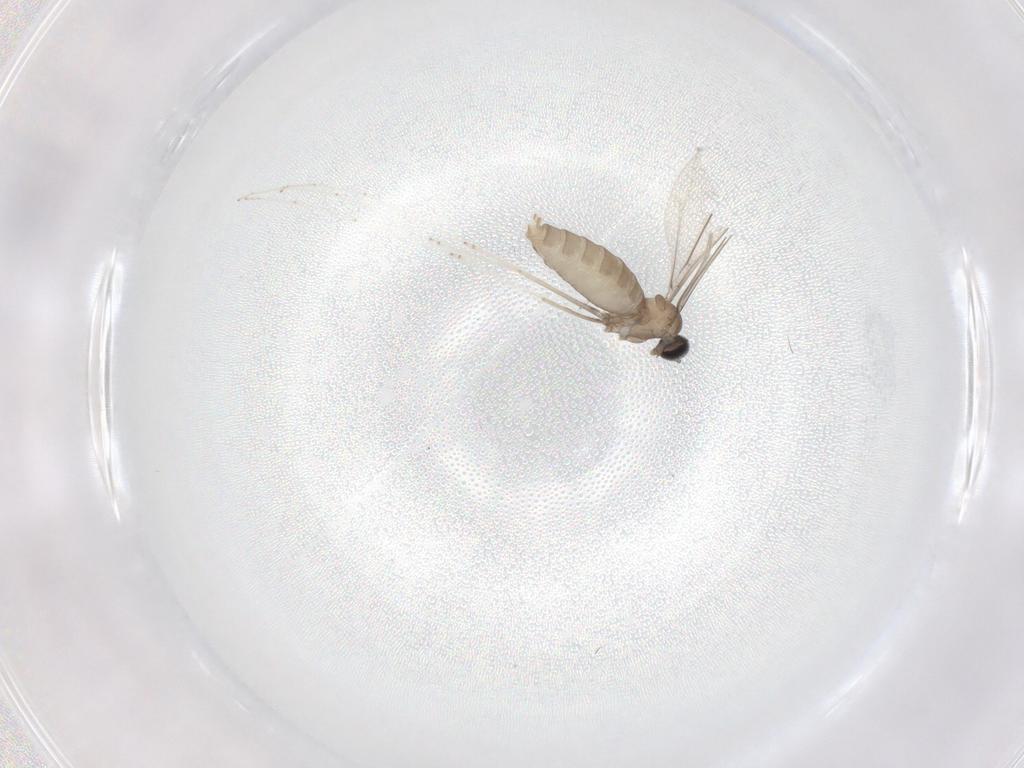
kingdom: Animalia
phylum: Arthropoda
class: Insecta
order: Diptera
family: Cecidomyiidae
